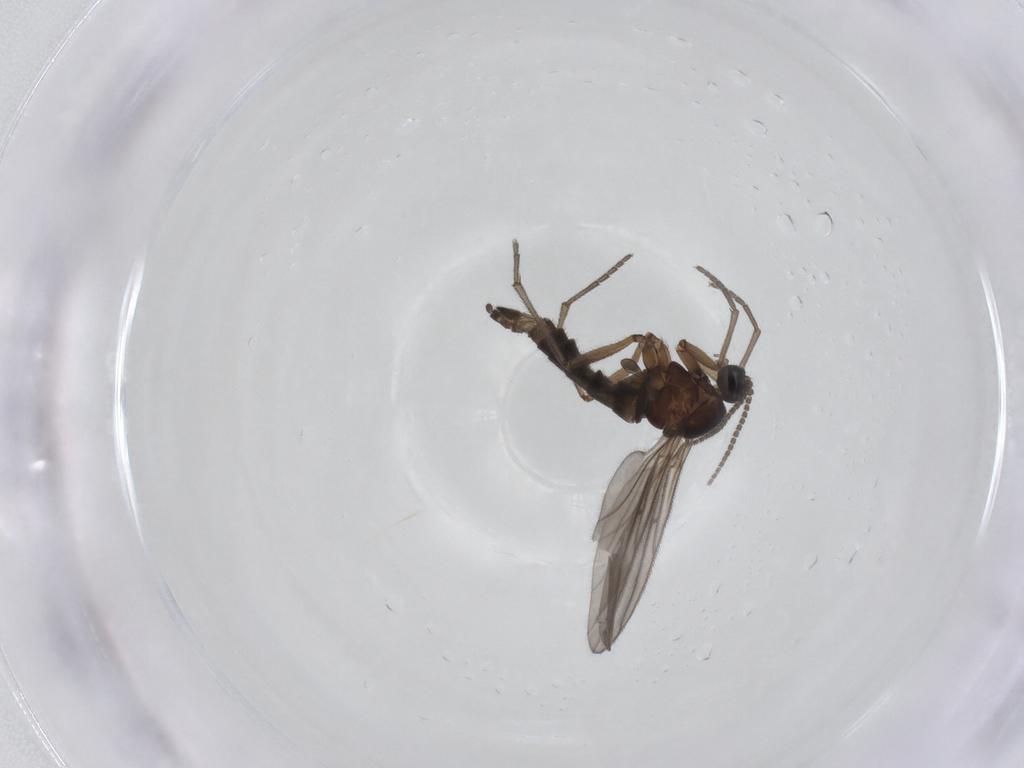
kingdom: Animalia
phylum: Arthropoda
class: Insecta
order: Diptera
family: Sciaridae
